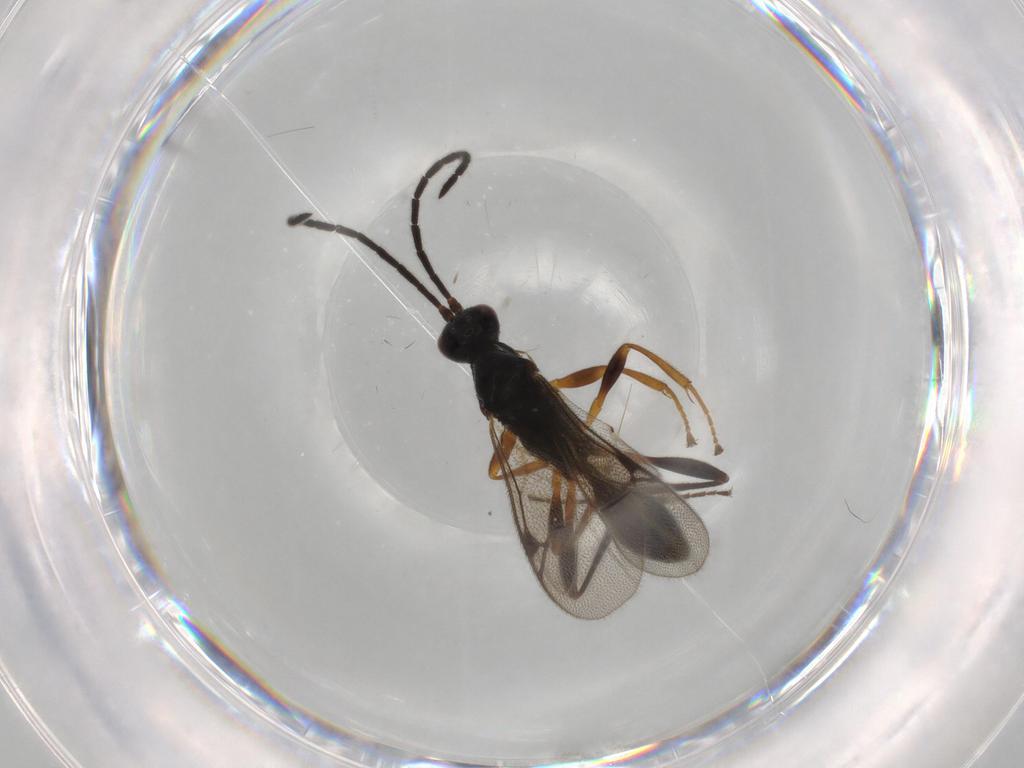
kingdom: Animalia
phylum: Arthropoda
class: Insecta
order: Hymenoptera
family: Proctotrupidae
